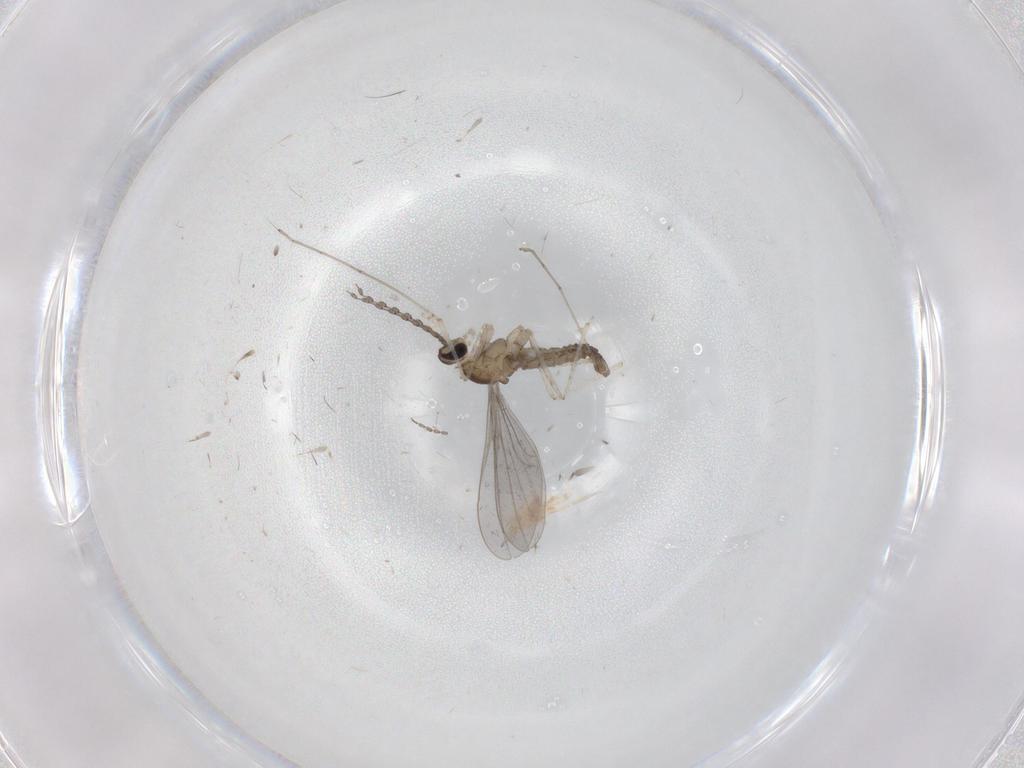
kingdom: Animalia
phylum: Arthropoda
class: Insecta
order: Diptera
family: Cecidomyiidae
